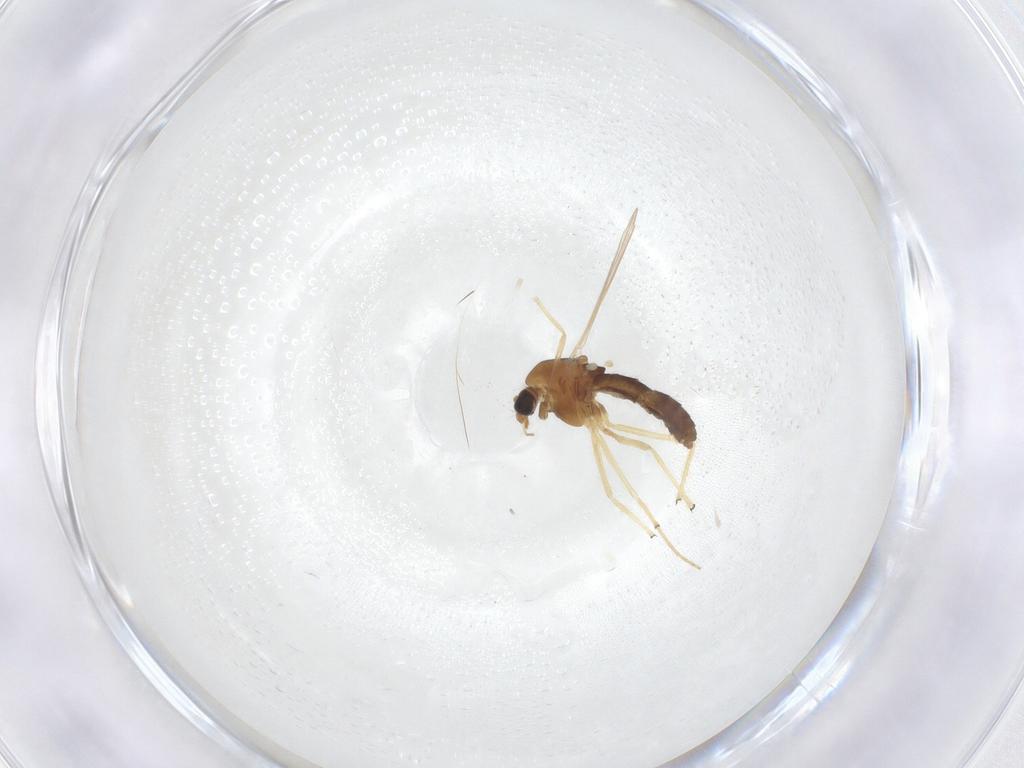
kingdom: Animalia
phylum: Arthropoda
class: Insecta
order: Diptera
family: Chironomidae
